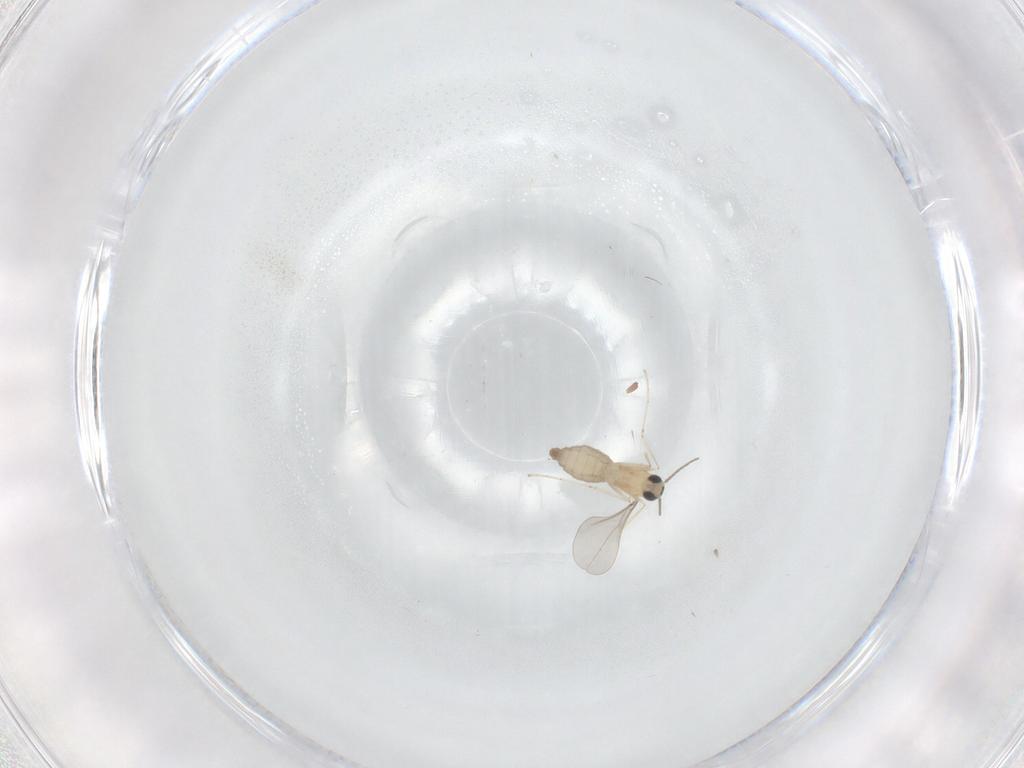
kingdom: Animalia
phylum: Arthropoda
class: Insecta
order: Diptera
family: Cecidomyiidae
